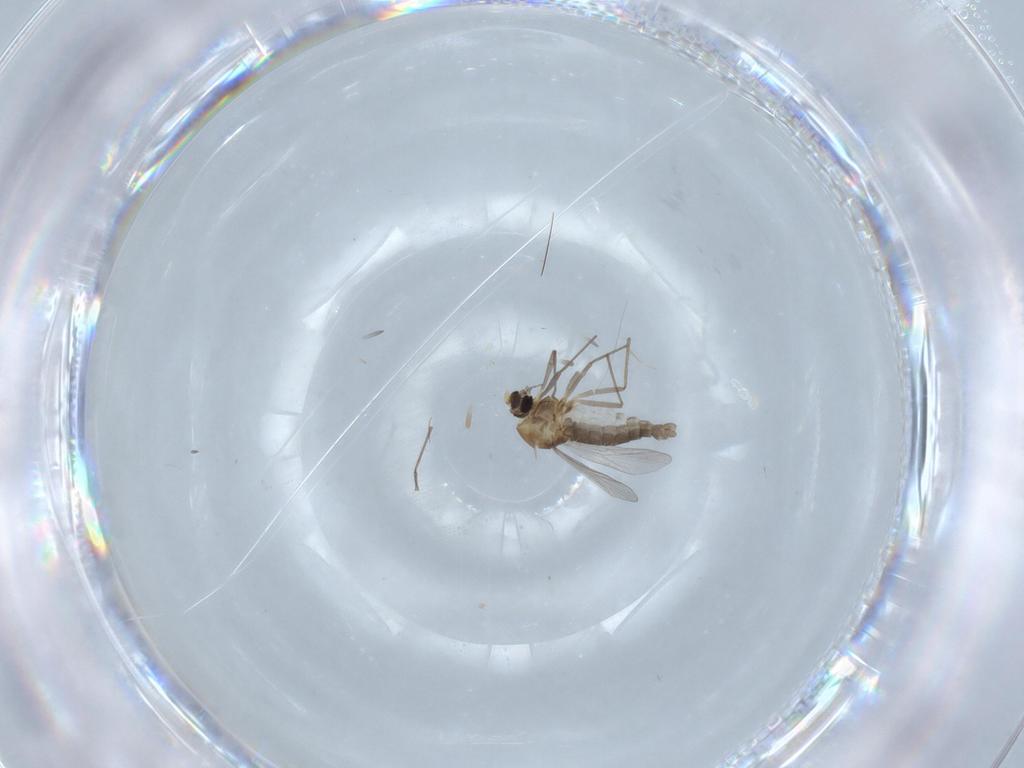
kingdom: Animalia
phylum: Arthropoda
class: Insecta
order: Diptera
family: Chironomidae
